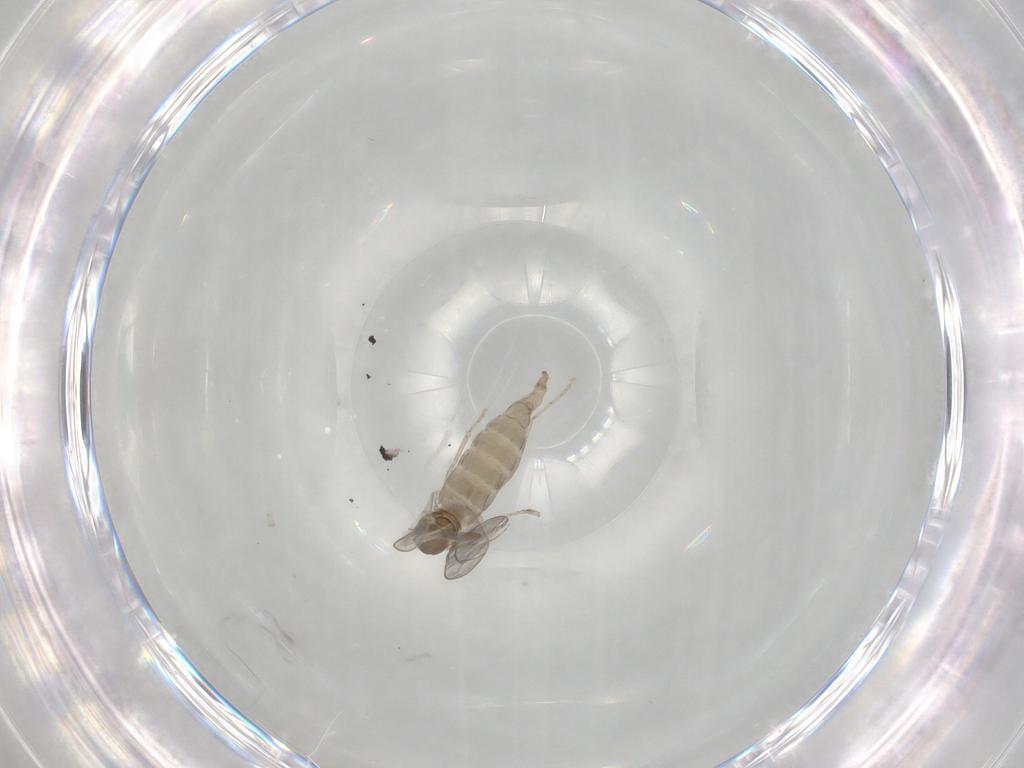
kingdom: Animalia
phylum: Arthropoda
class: Insecta
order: Diptera
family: Cecidomyiidae
